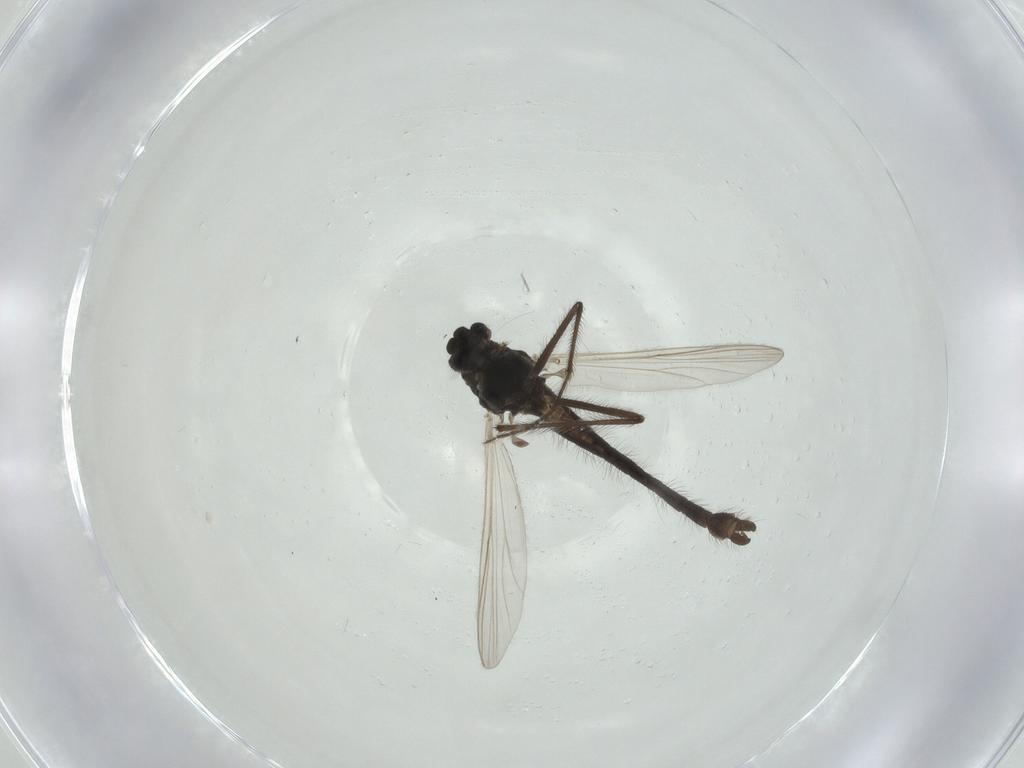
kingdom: Animalia
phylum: Arthropoda
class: Insecta
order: Diptera
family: Chironomidae
